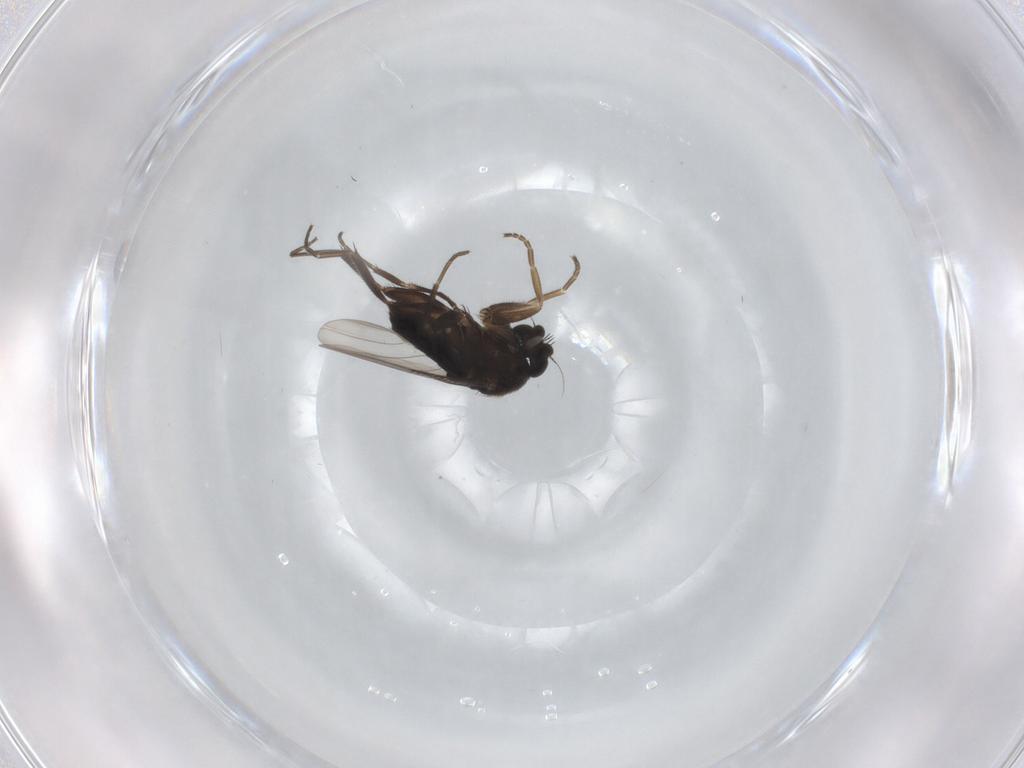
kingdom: Animalia
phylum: Arthropoda
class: Insecta
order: Diptera
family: Phoridae
